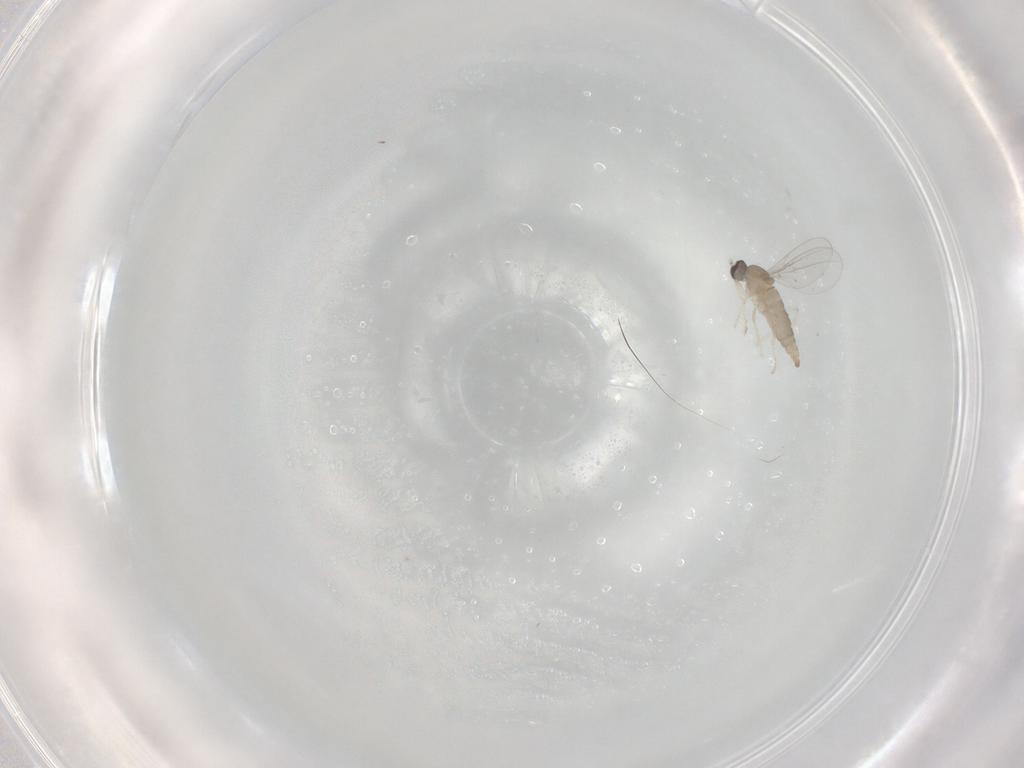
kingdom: Animalia
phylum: Arthropoda
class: Insecta
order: Diptera
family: Cecidomyiidae
